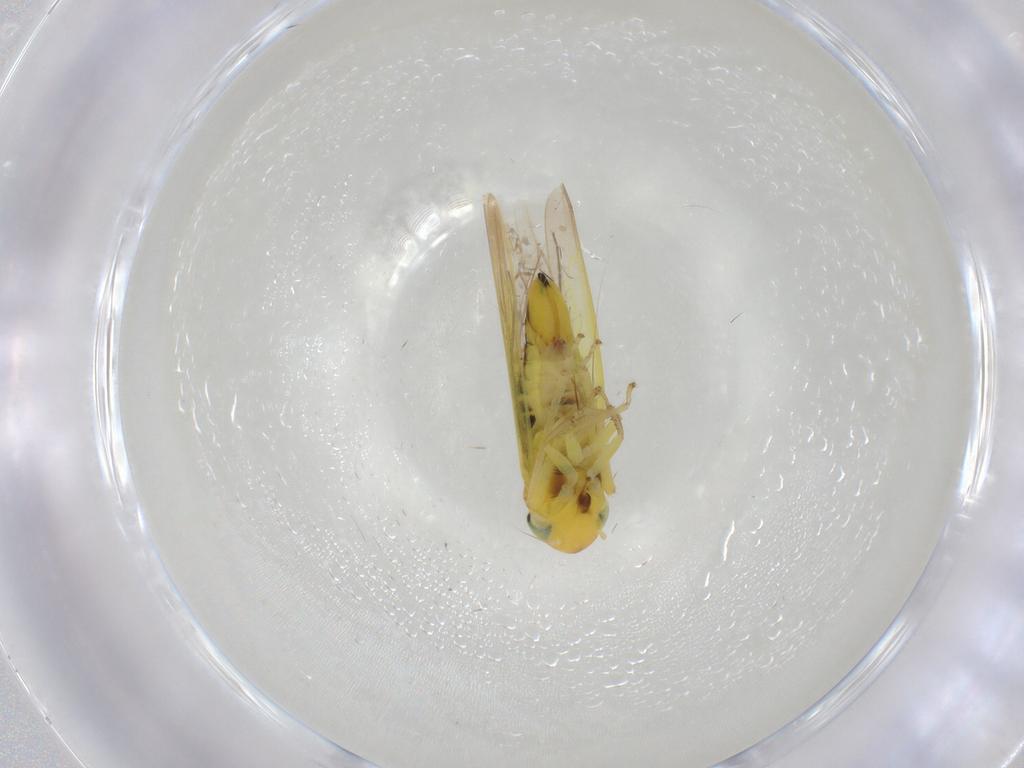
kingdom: Animalia
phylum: Arthropoda
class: Insecta
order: Hemiptera
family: Cicadellidae
